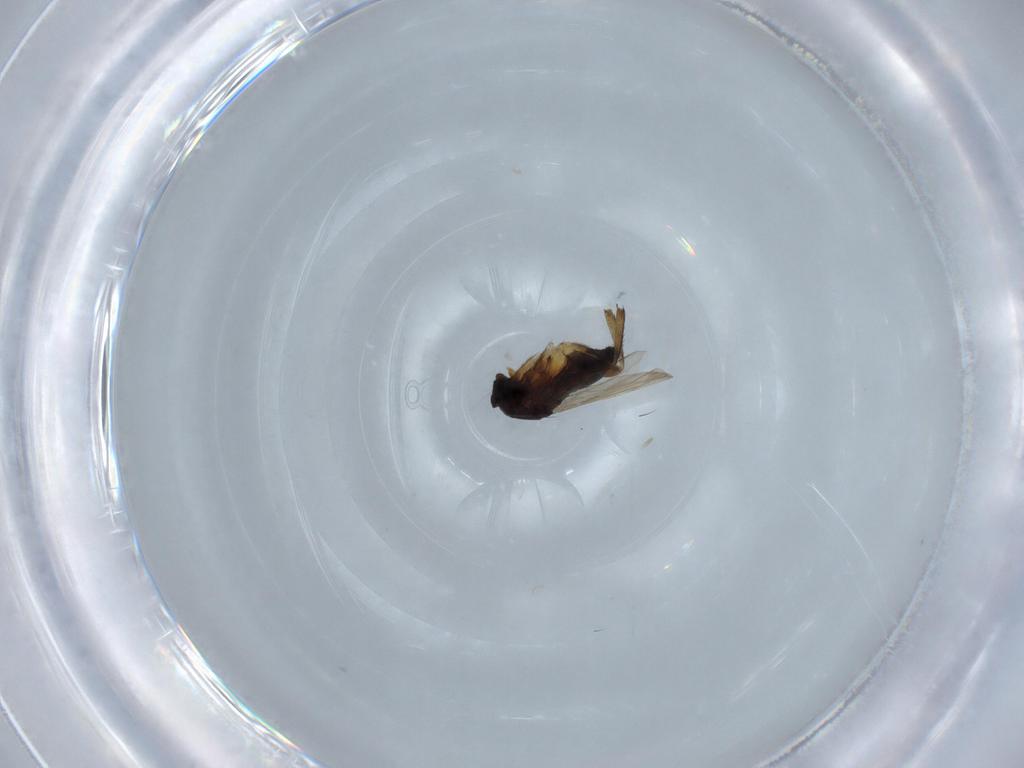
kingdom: Animalia
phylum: Arthropoda
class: Insecta
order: Diptera
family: Phoridae
